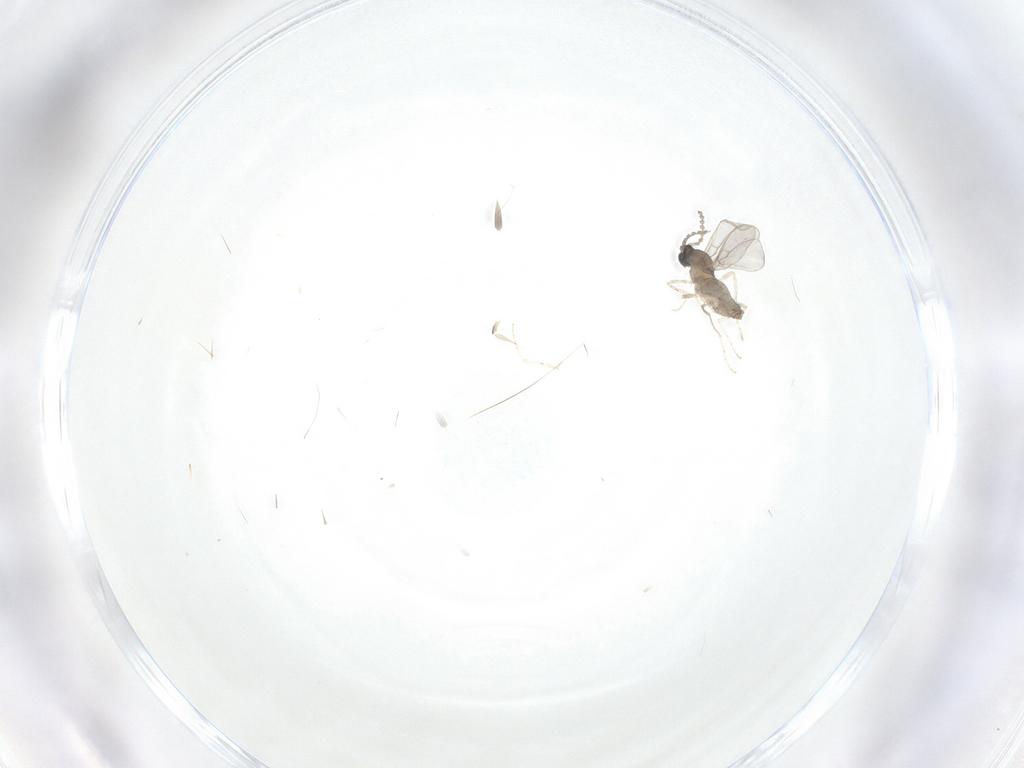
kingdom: Animalia
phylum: Arthropoda
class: Insecta
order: Diptera
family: Cecidomyiidae
